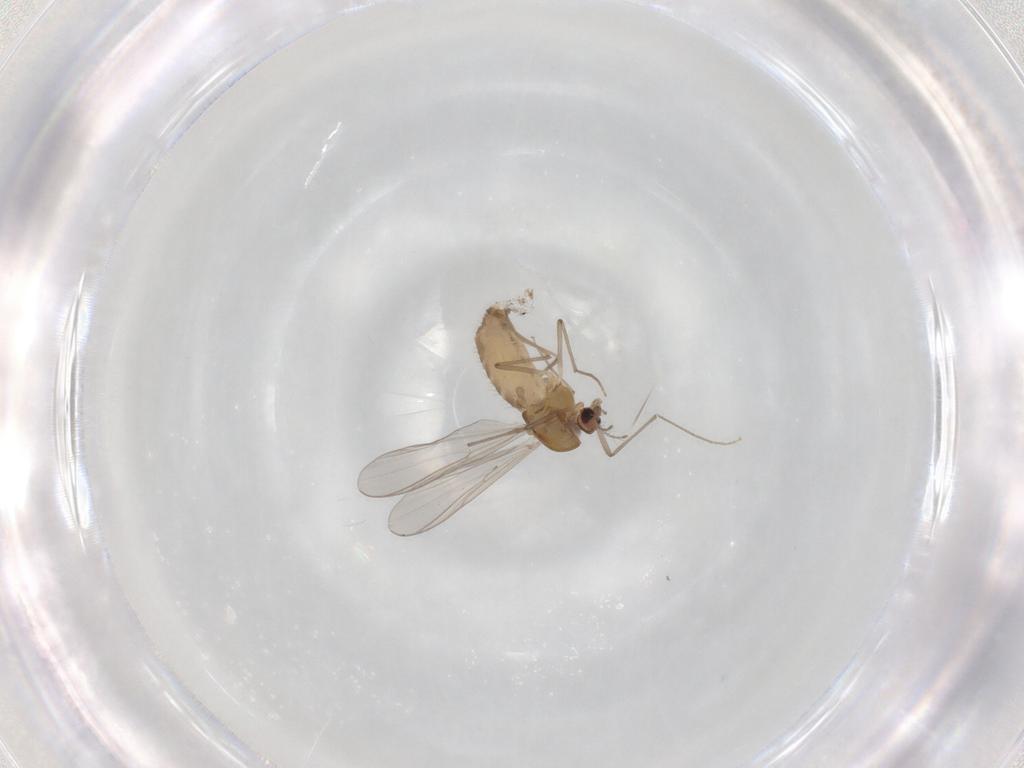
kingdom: Animalia
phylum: Arthropoda
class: Insecta
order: Diptera
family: Chironomidae
